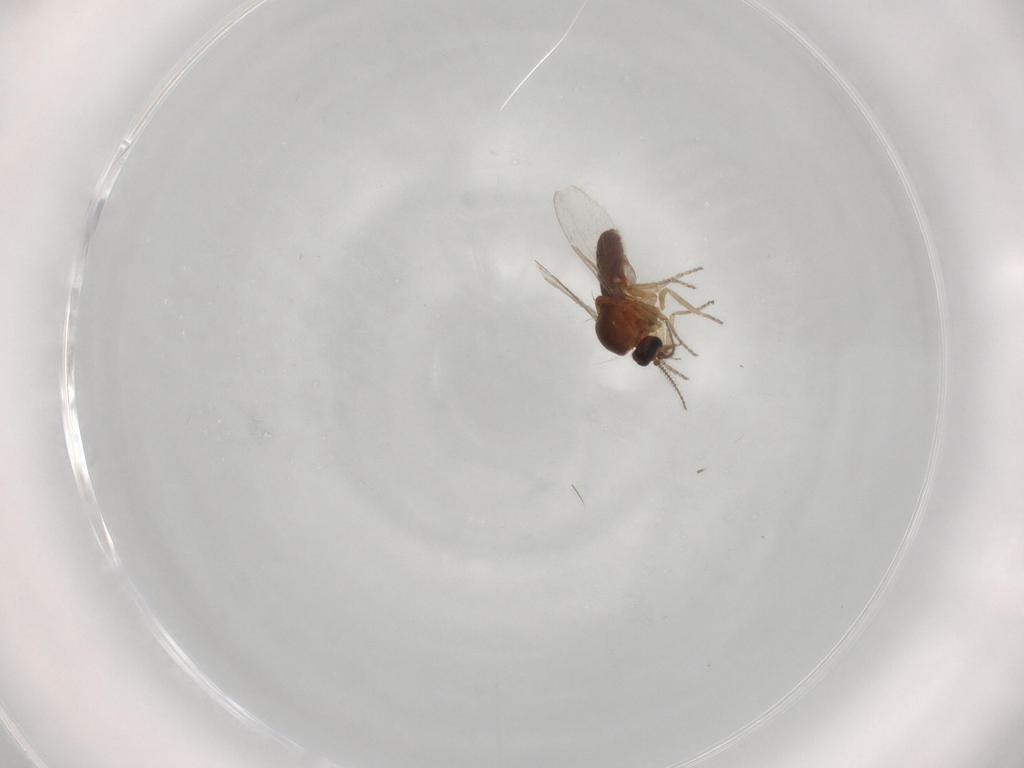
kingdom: Animalia
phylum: Arthropoda
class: Insecta
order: Diptera
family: Ceratopogonidae
